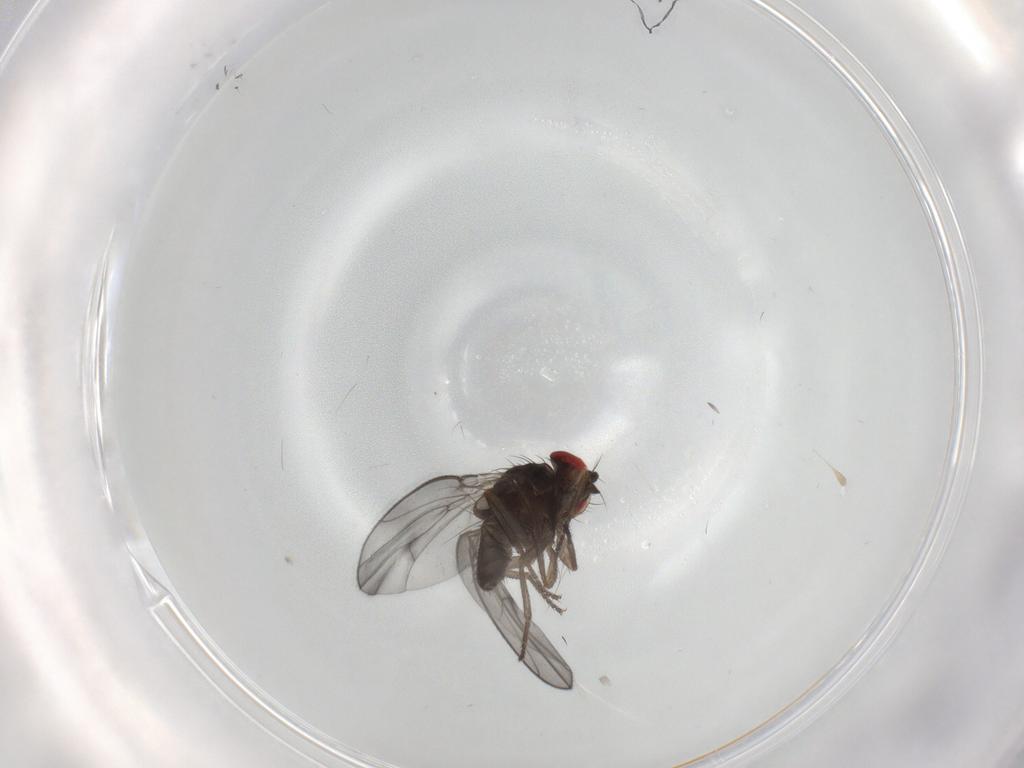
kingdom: Animalia
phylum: Arthropoda
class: Insecta
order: Diptera
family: Drosophilidae
